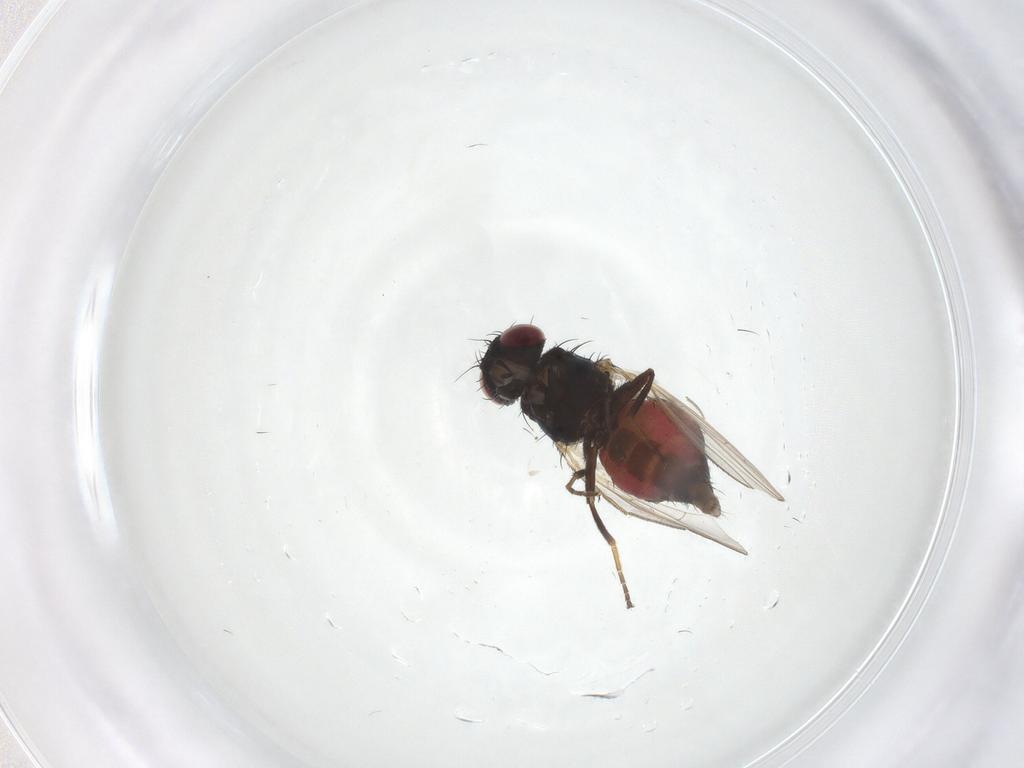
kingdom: Animalia
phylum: Arthropoda
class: Insecta
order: Diptera
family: Carnidae
